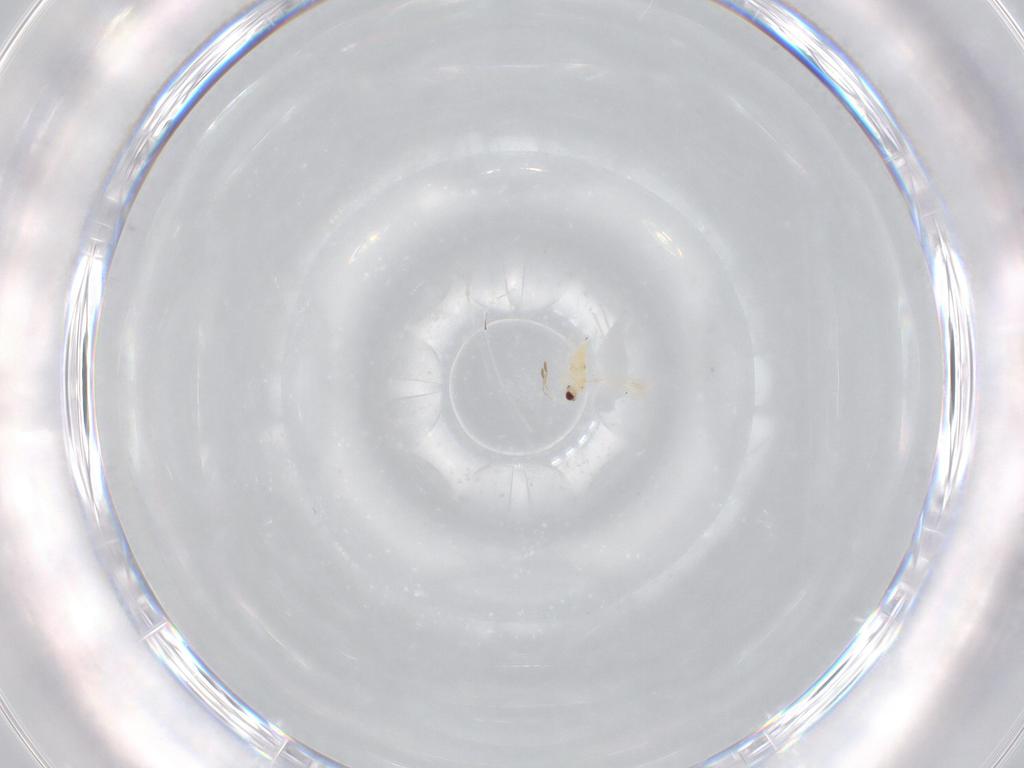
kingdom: Animalia
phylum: Arthropoda
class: Insecta
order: Hymenoptera
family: Mymaridae
